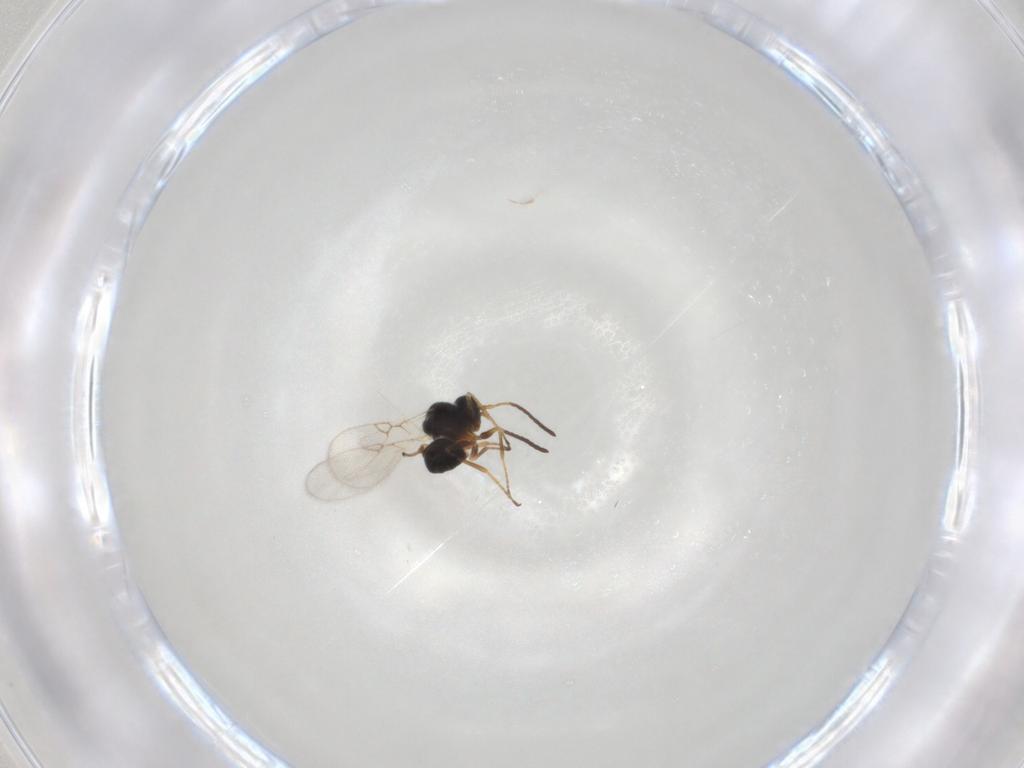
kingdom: Animalia
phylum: Arthropoda
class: Insecta
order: Hymenoptera
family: Figitidae
